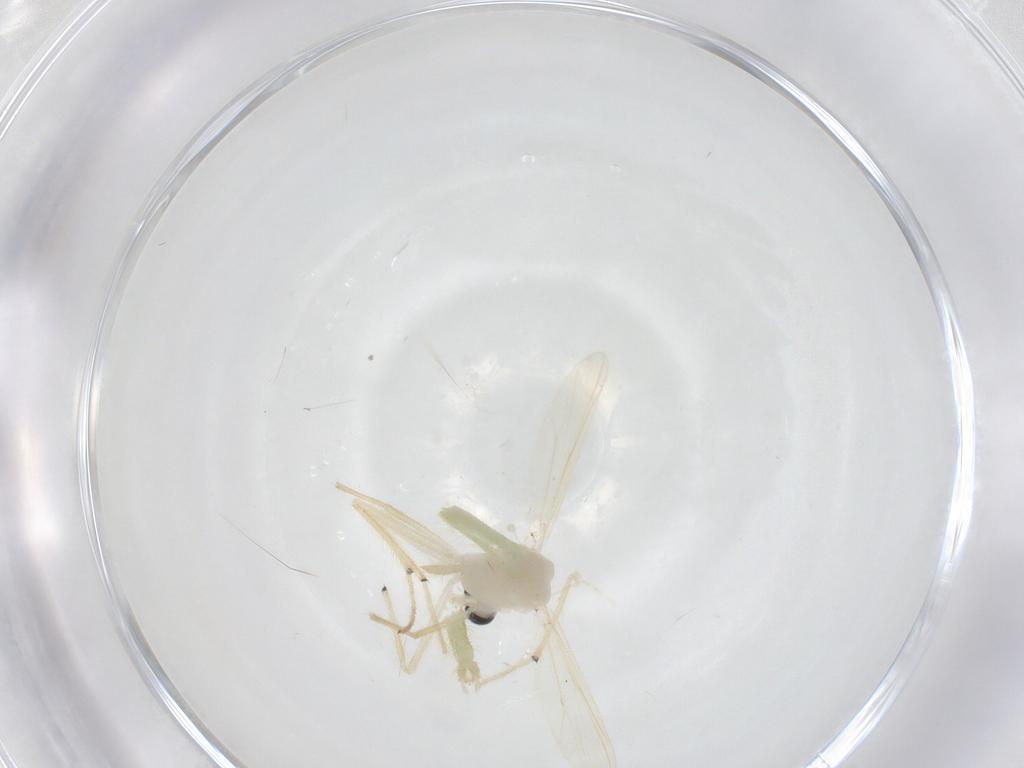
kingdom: Animalia
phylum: Arthropoda
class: Insecta
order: Diptera
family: Chironomidae
